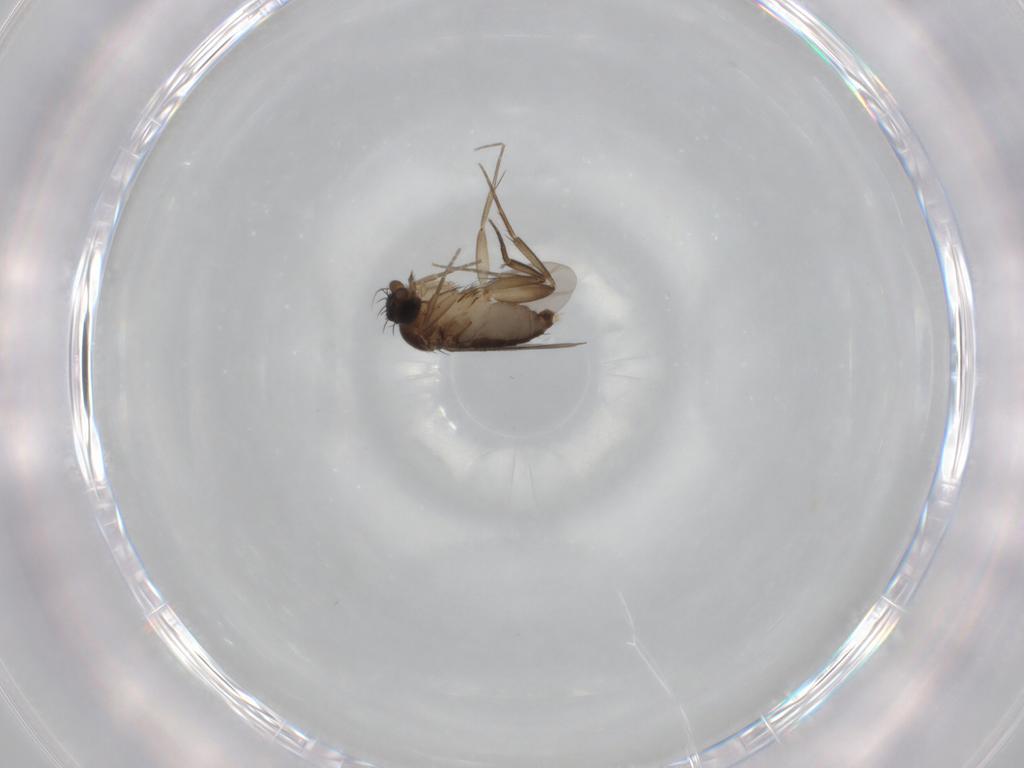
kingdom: Animalia
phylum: Arthropoda
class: Insecta
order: Diptera
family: Phoridae
